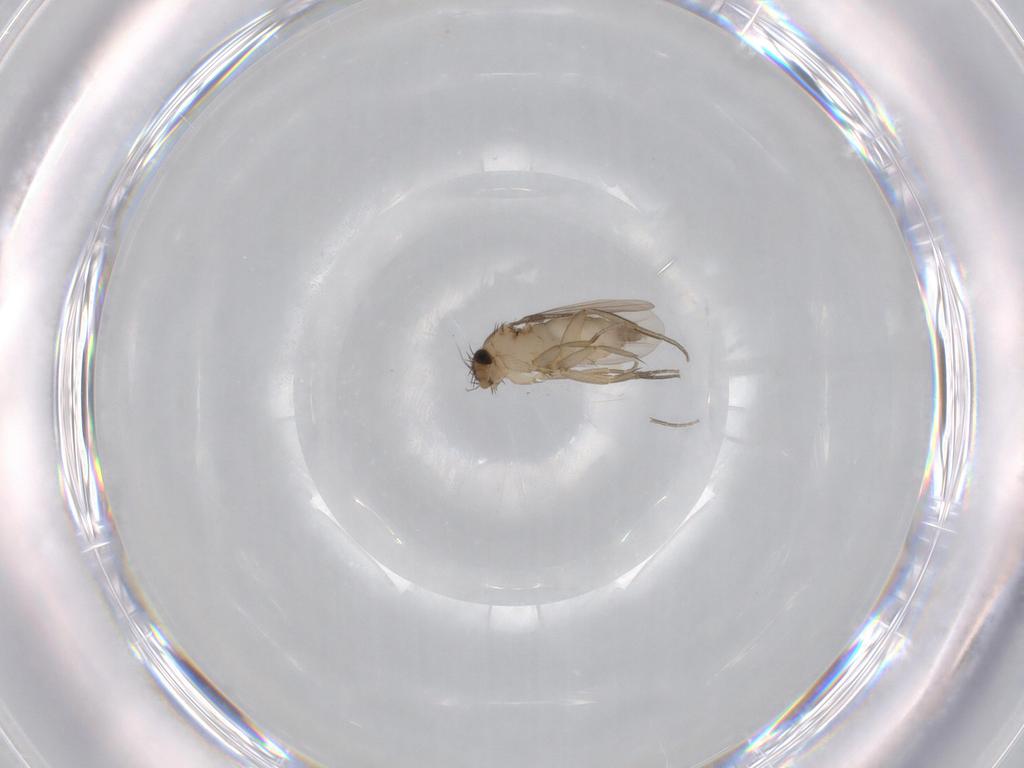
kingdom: Animalia
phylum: Arthropoda
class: Insecta
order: Diptera
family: Phoridae
